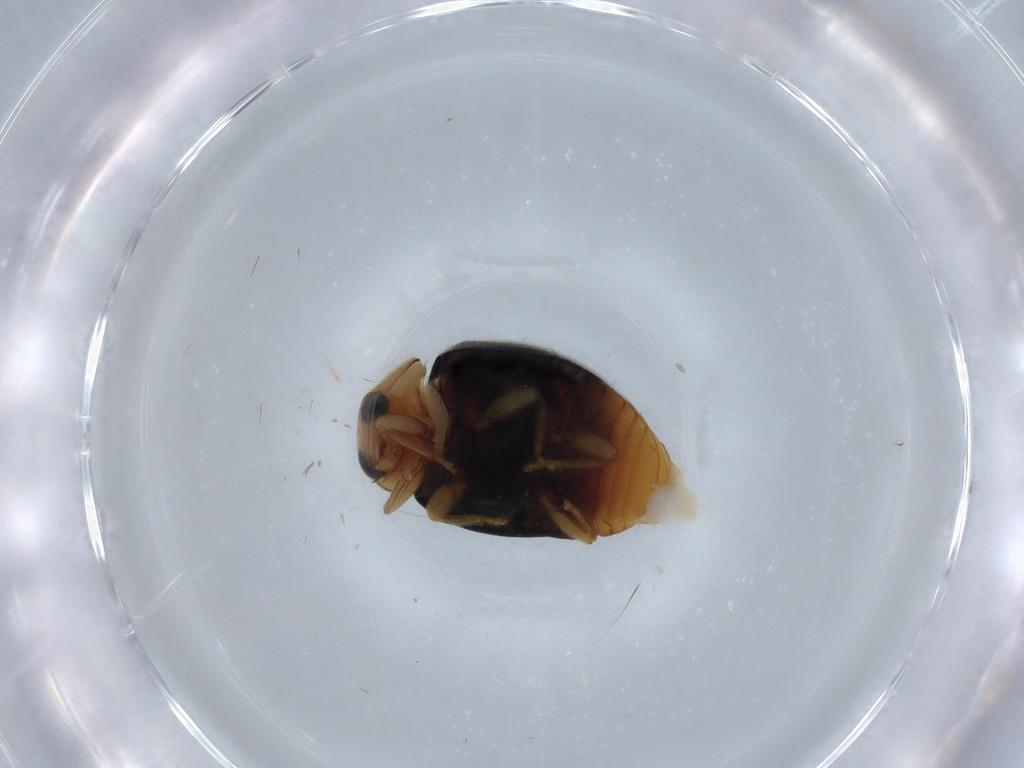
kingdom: Animalia
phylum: Arthropoda
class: Insecta
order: Coleoptera
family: Coccinellidae
